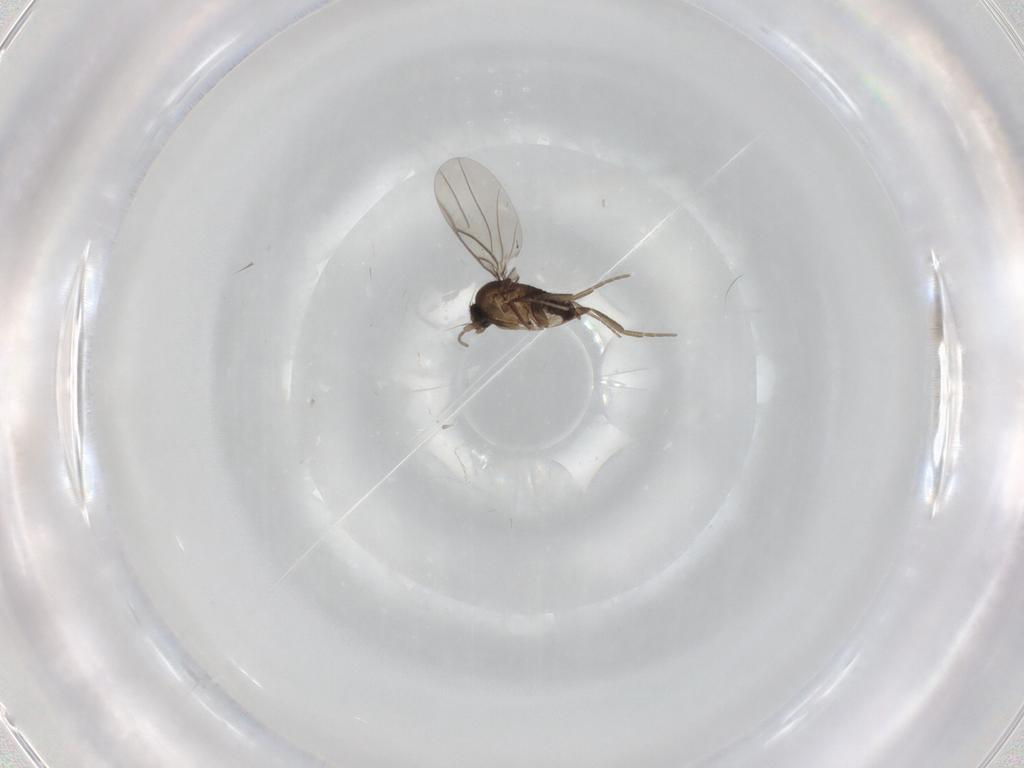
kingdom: Animalia
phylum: Arthropoda
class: Insecta
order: Diptera
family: Phoridae
